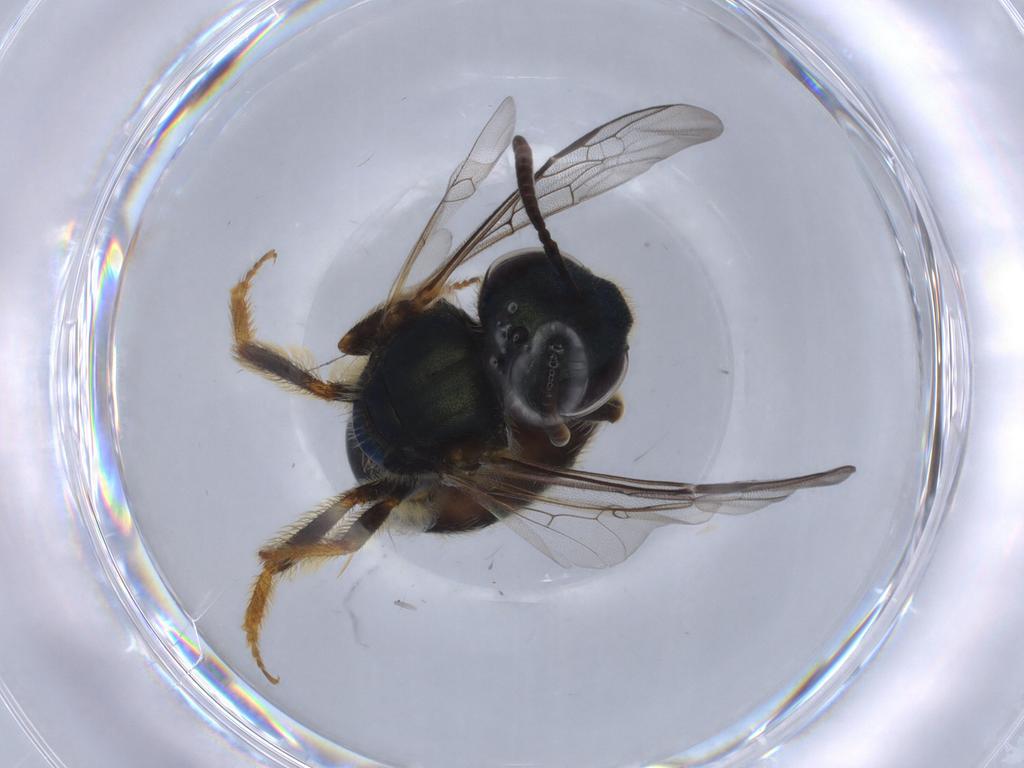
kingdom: Animalia
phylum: Arthropoda
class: Insecta
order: Hymenoptera
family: Halictidae
